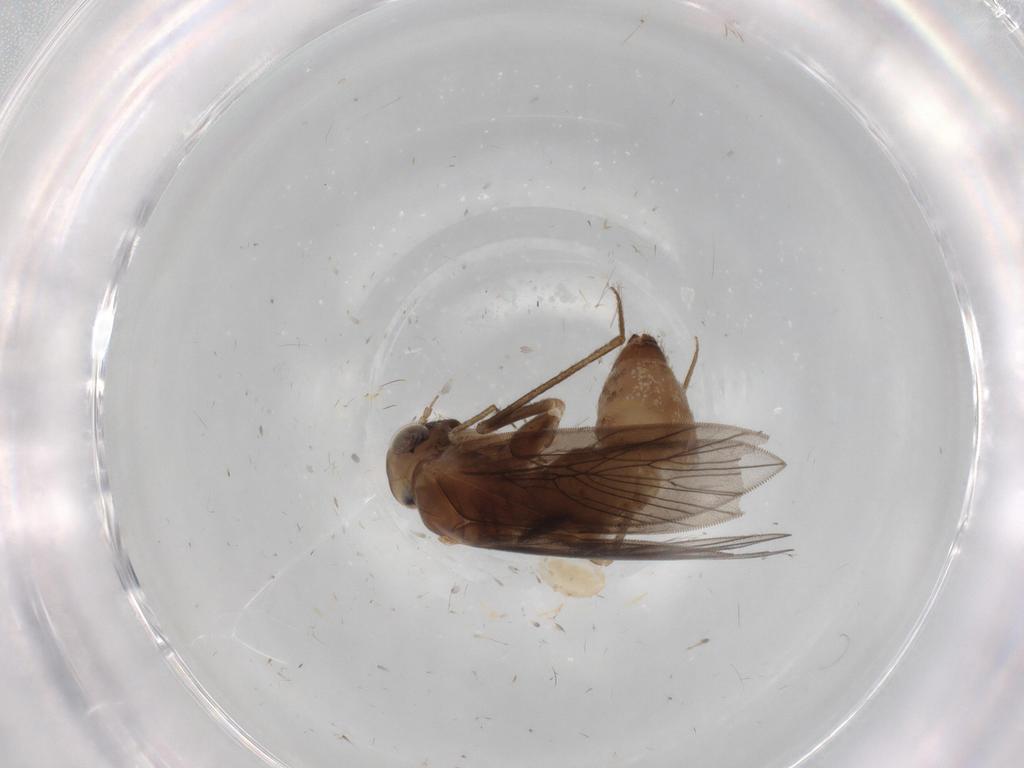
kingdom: Animalia
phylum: Arthropoda
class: Insecta
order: Psocodea
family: Lepidopsocidae
